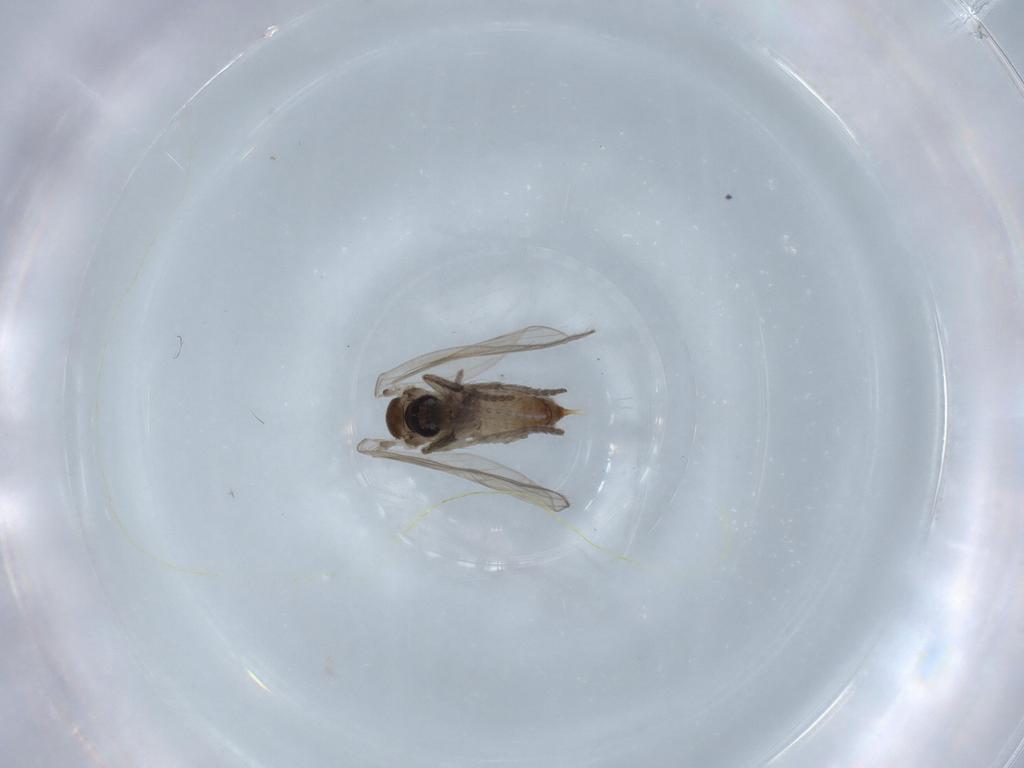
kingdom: Animalia
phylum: Arthropoda
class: Insecta
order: Diptera
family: Psychodidae
